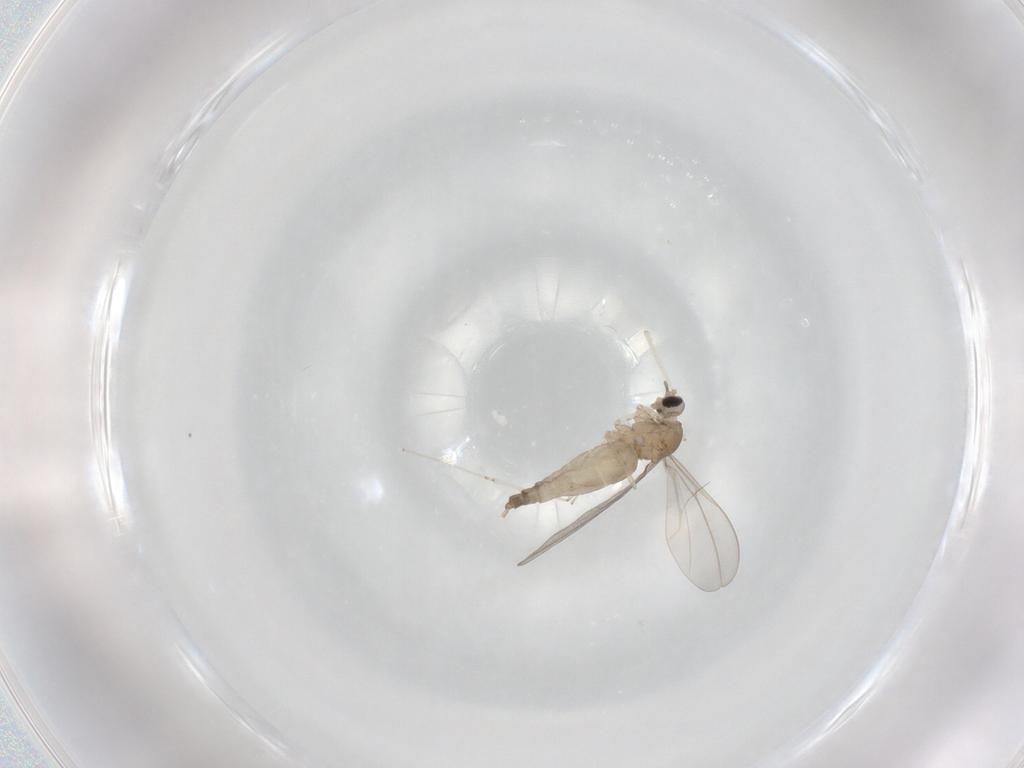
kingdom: Animalia
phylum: Arthropoda
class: Insecta
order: Diptera
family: Cecidomyiidae
